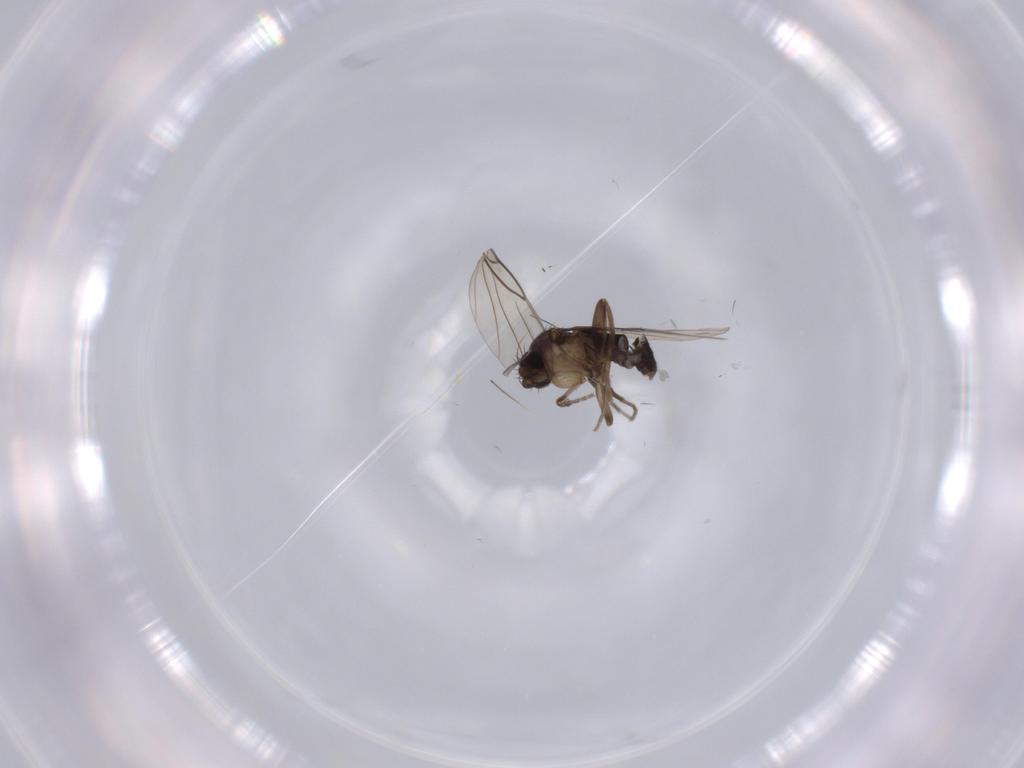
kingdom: Animalia
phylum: Arthropoda
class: Insecta
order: Diptera
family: Phoridae
